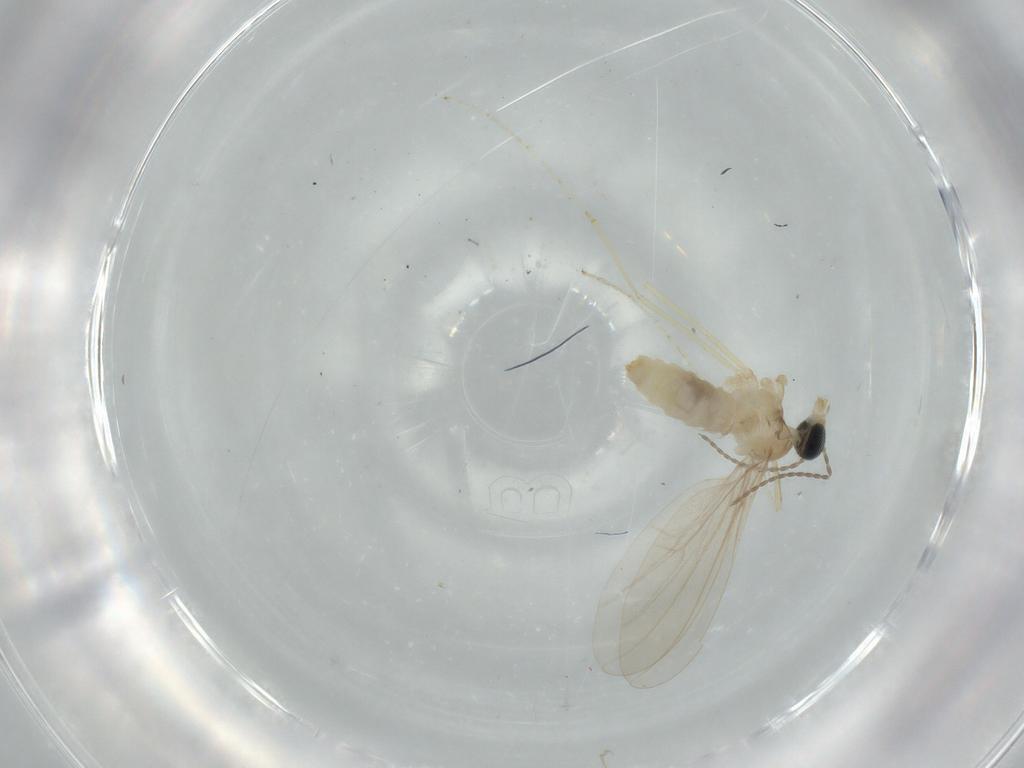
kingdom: Animalia
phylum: Arthropoda
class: Insecta
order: Diptera
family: Cecidomyiidae
